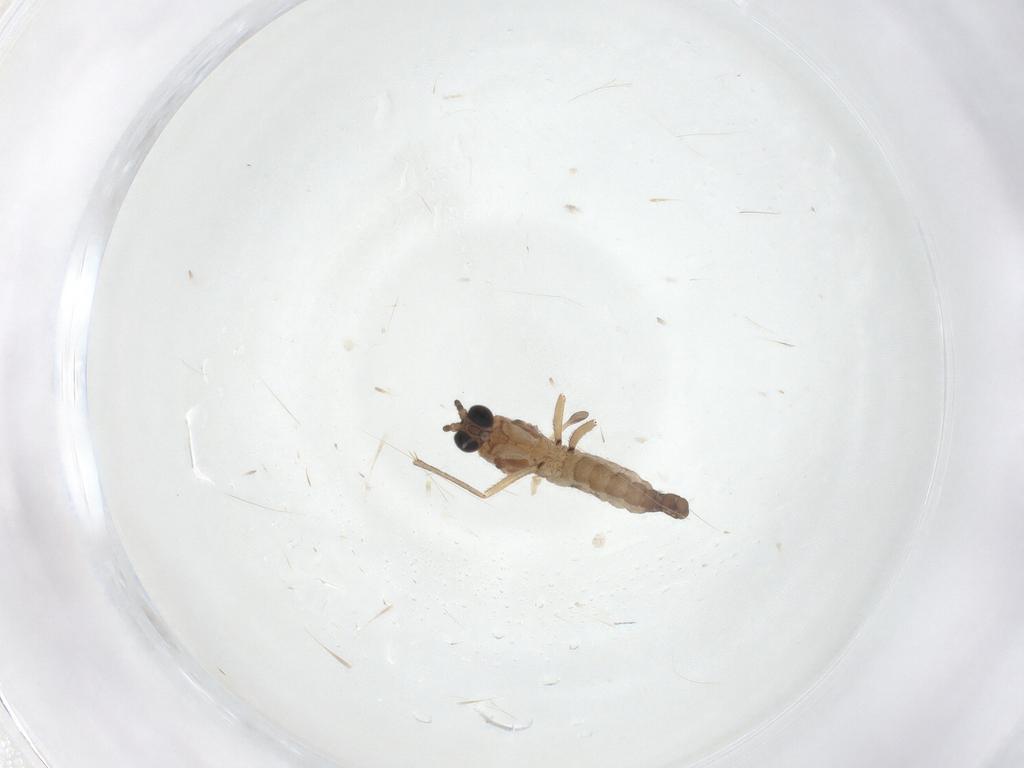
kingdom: Animalia
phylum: Arthropoda
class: Insecta
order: Diptera
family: Sciaridae
